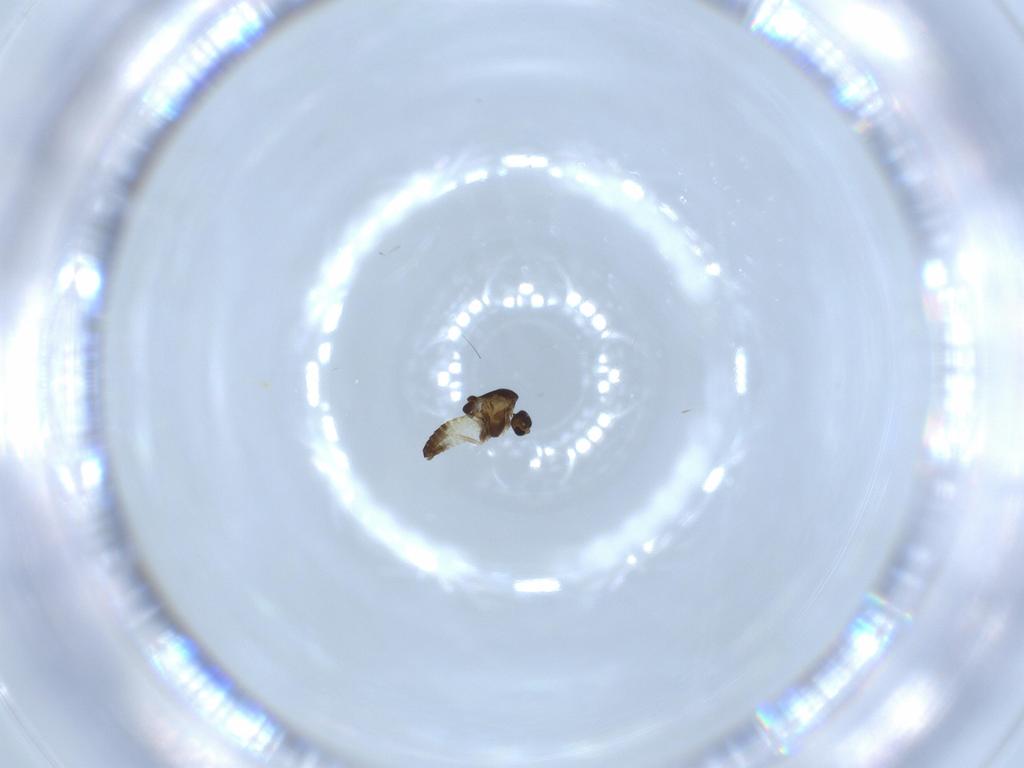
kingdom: Animalia
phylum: Arthropoda
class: Insecta
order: Diptera
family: Chironomidae
